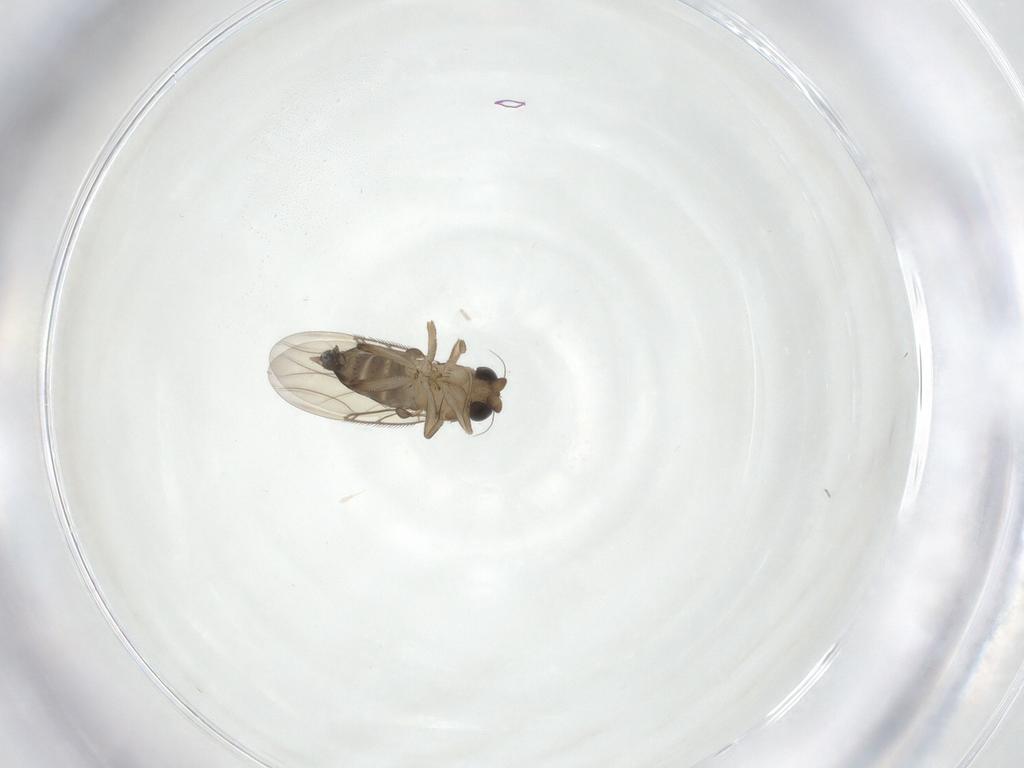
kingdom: Animalia
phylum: Arthropoda
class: Insecta
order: Diptera
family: Phoridae
